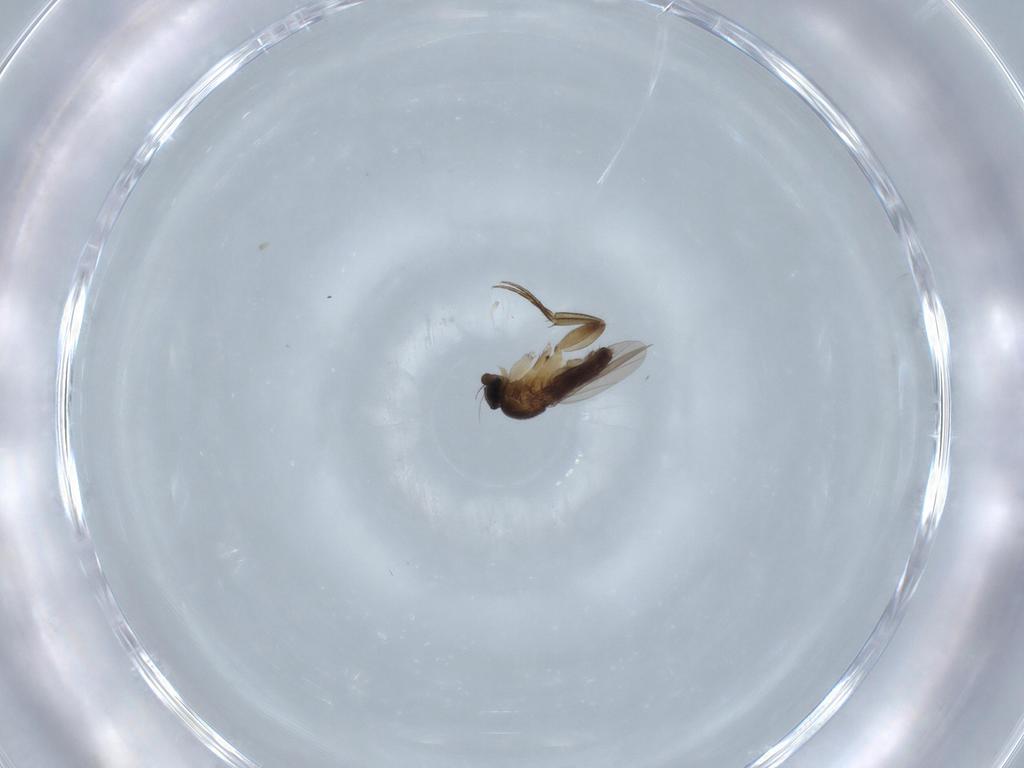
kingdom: Animalia
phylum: Arthropoda
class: Insecta
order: Diptera
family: Phoridae
